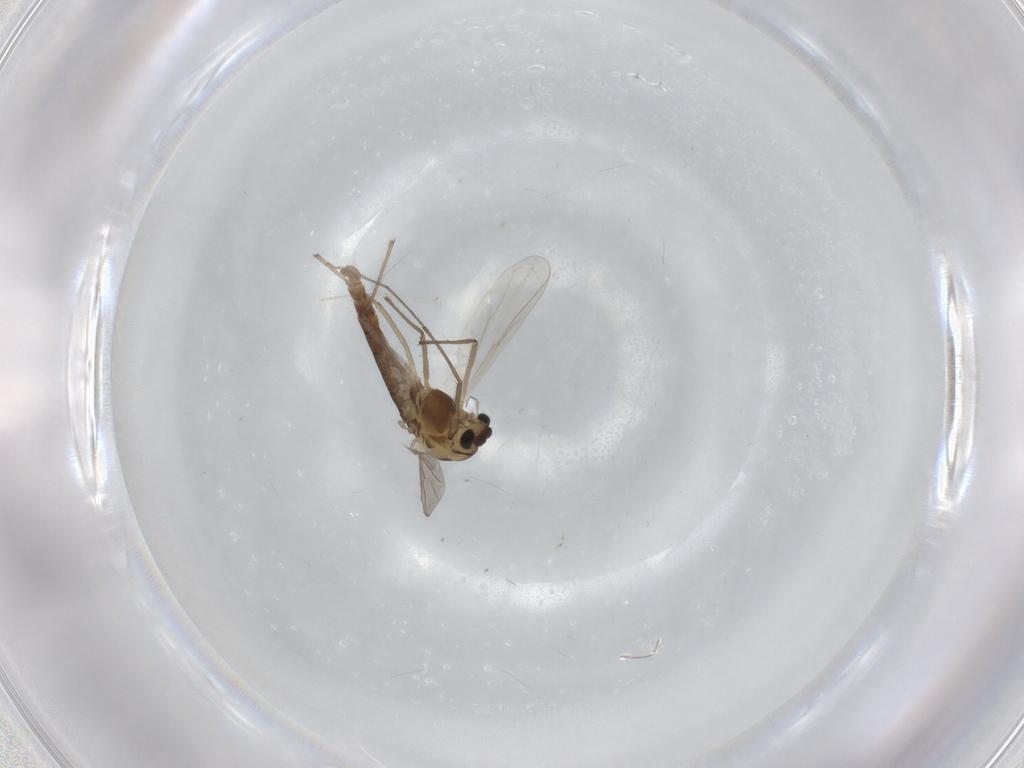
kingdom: Animalia
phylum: Arthropoda
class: Insecta
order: Diptera
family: Chironomidae
